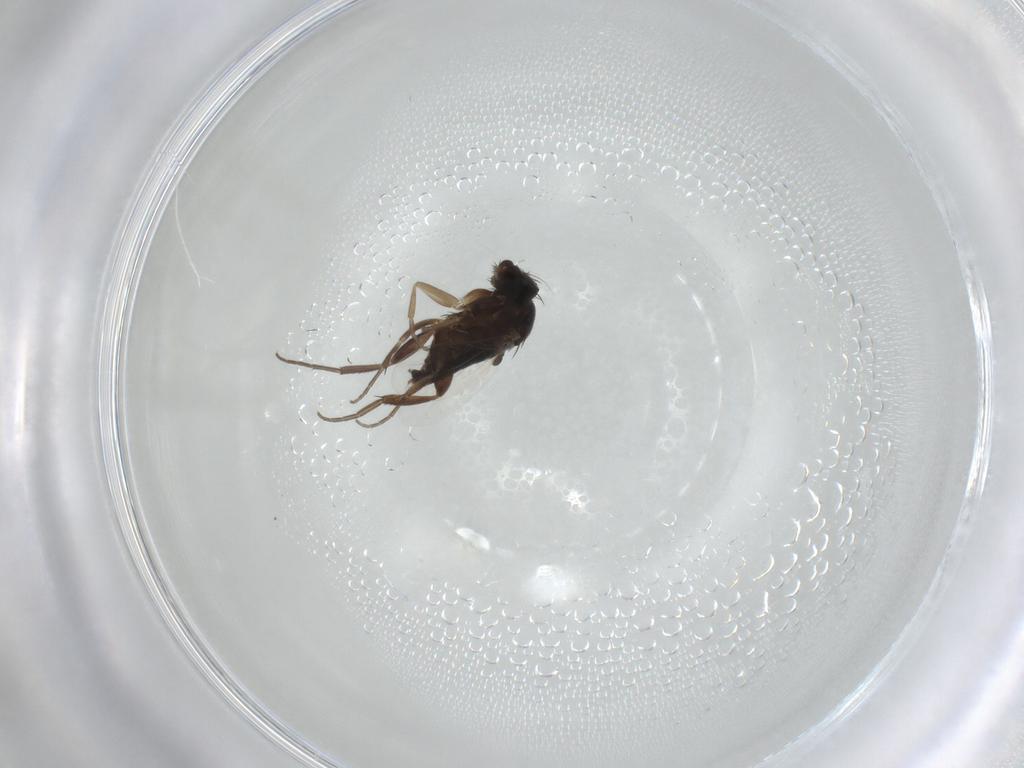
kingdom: Animalia
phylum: Arthropoda
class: Insecta
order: Diptera
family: Phoridae
